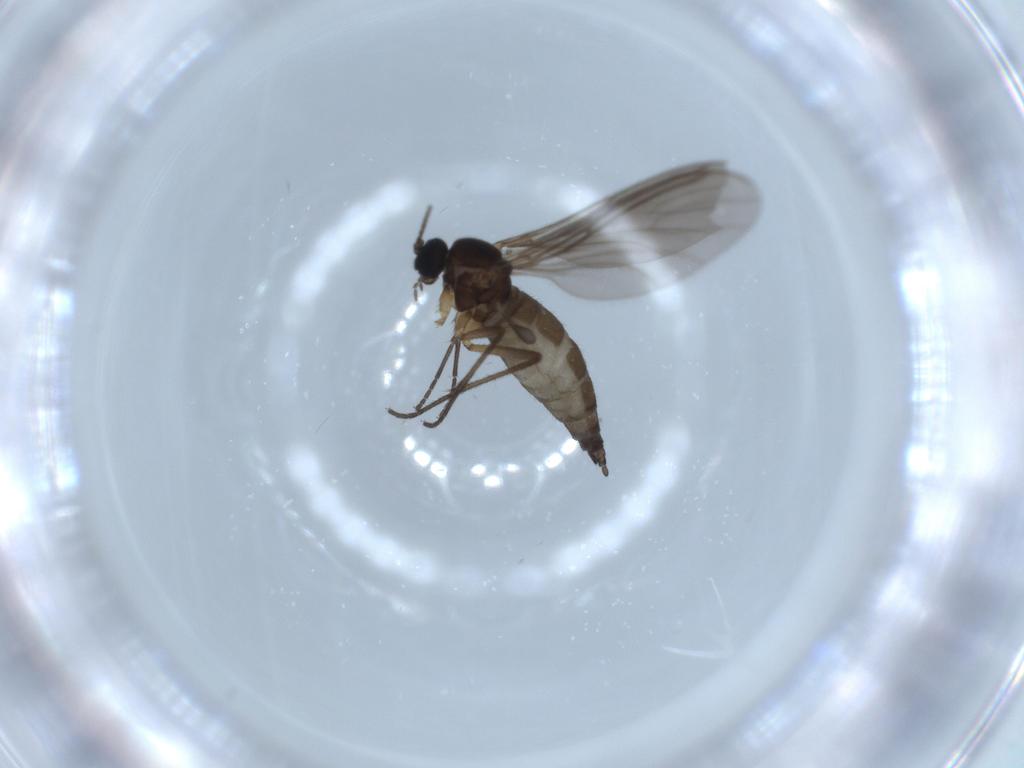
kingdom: Animalia
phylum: Arthropoda
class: Insecta
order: Diptera
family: Sciaridae
